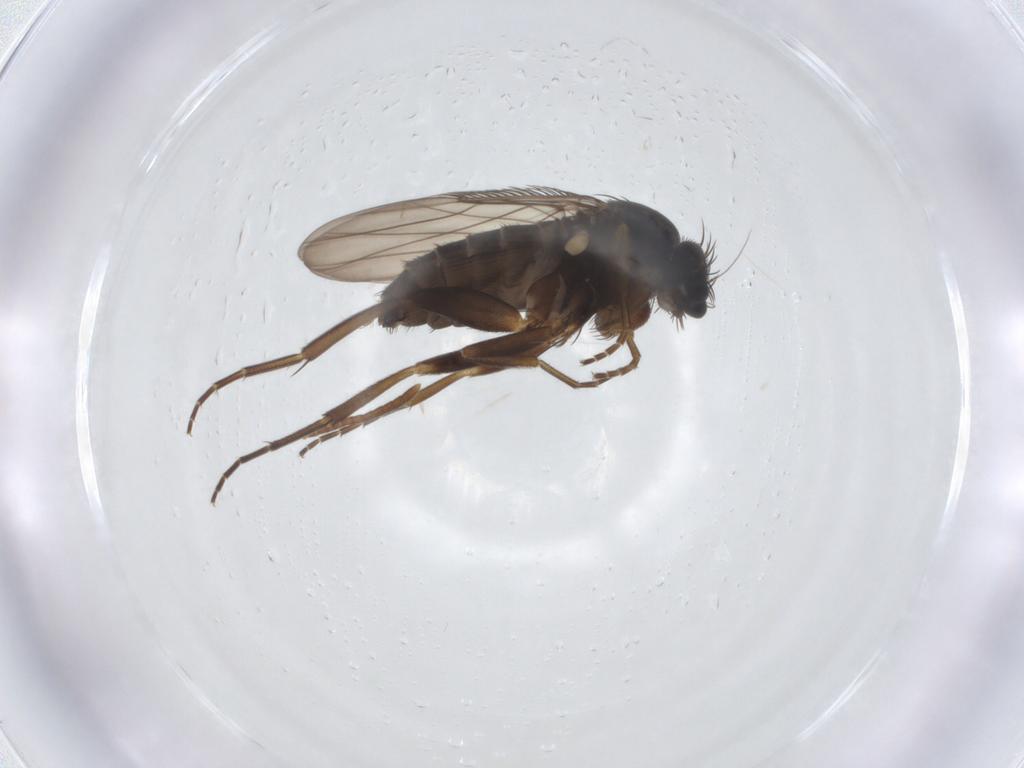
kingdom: Animalia
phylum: Arthropoda
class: Insecta
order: Diptera
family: Phoridae
